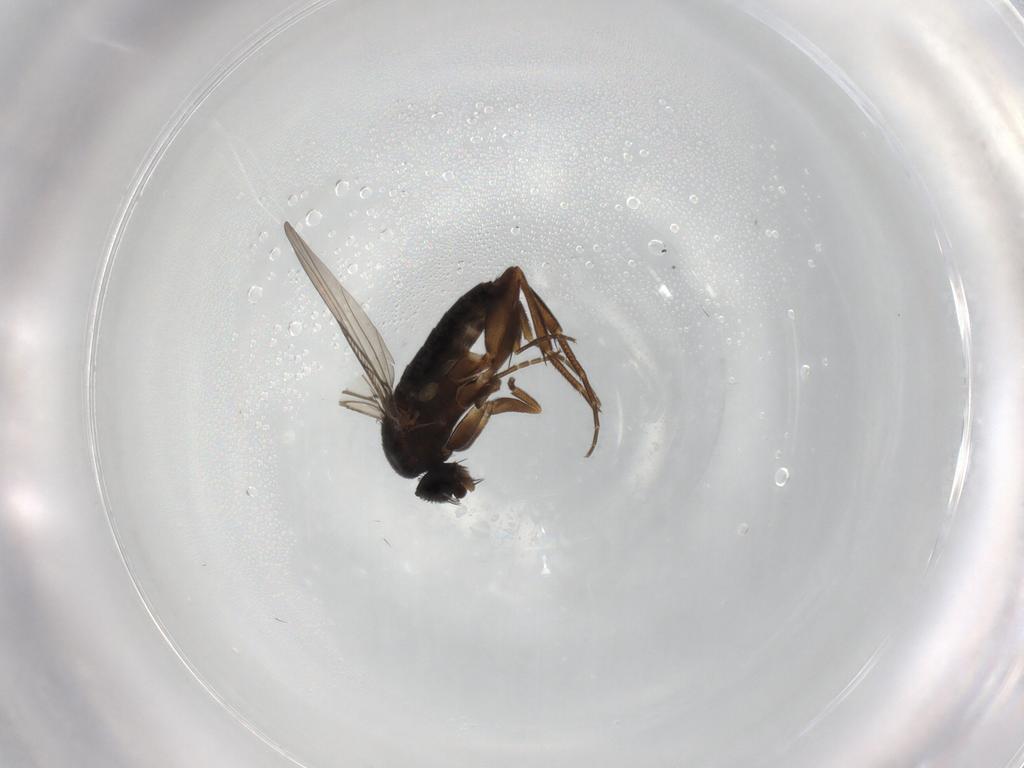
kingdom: Animalia
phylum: Arthropoda
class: Insecta
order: Diptera
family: Phoridae
